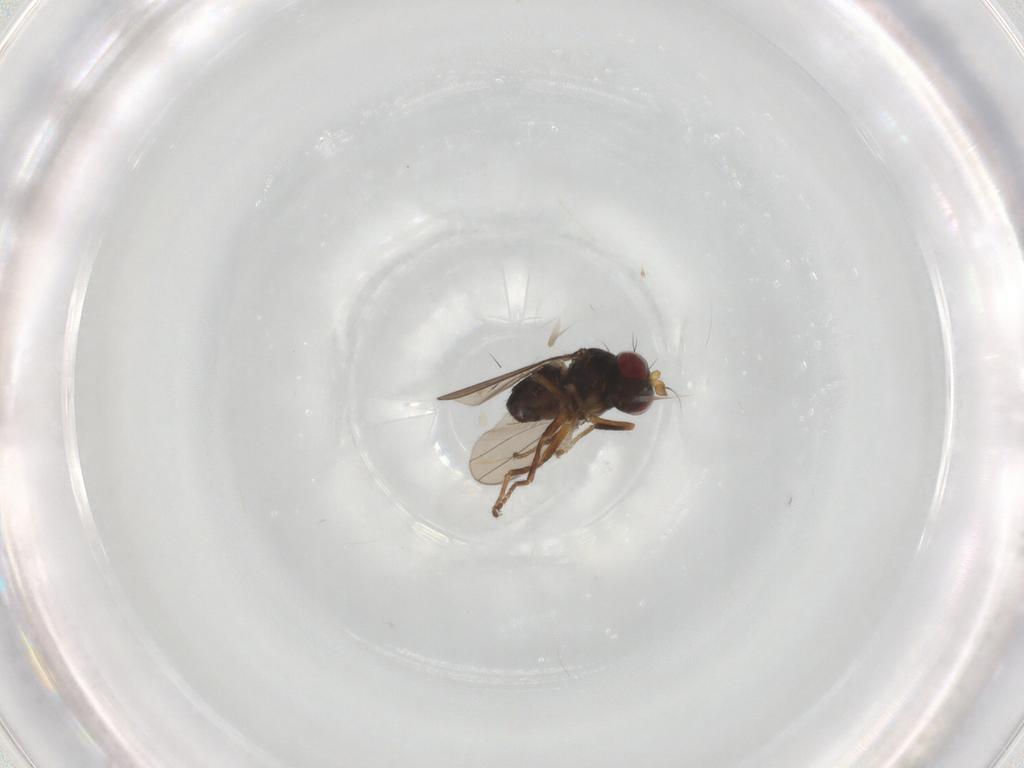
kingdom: Animalia
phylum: Arthropoda
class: Insecta
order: Diptera
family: Ephydridae
